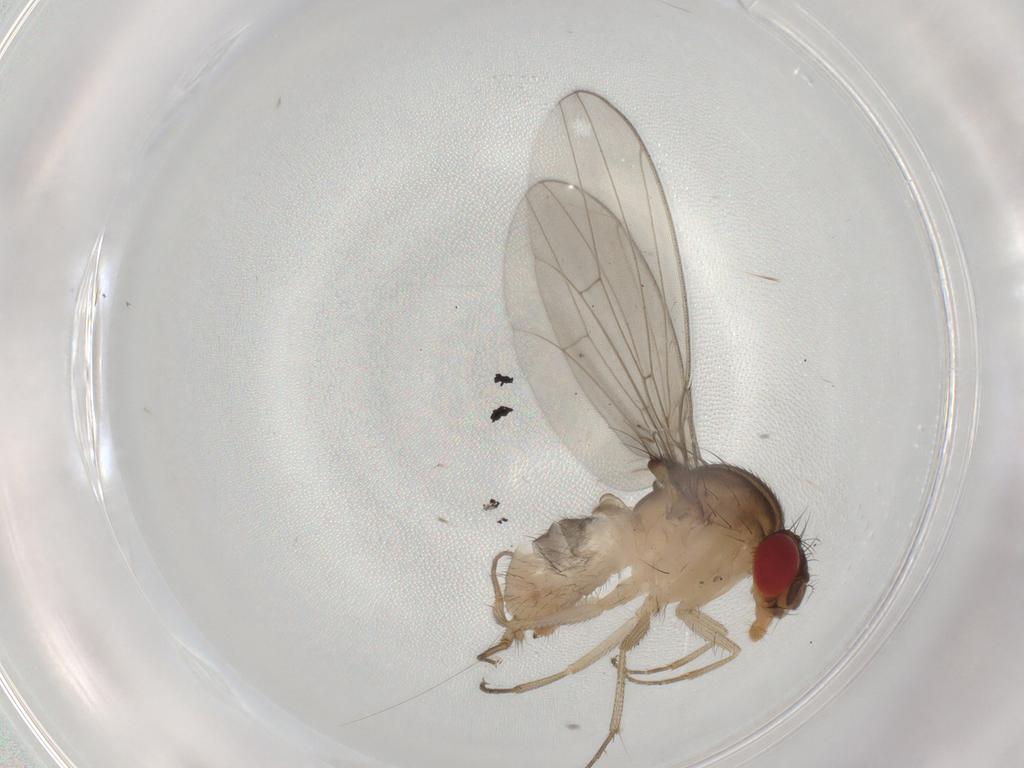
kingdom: Animalia
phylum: Arthropoda
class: Insecta
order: Diptera
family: Drosophilidae
